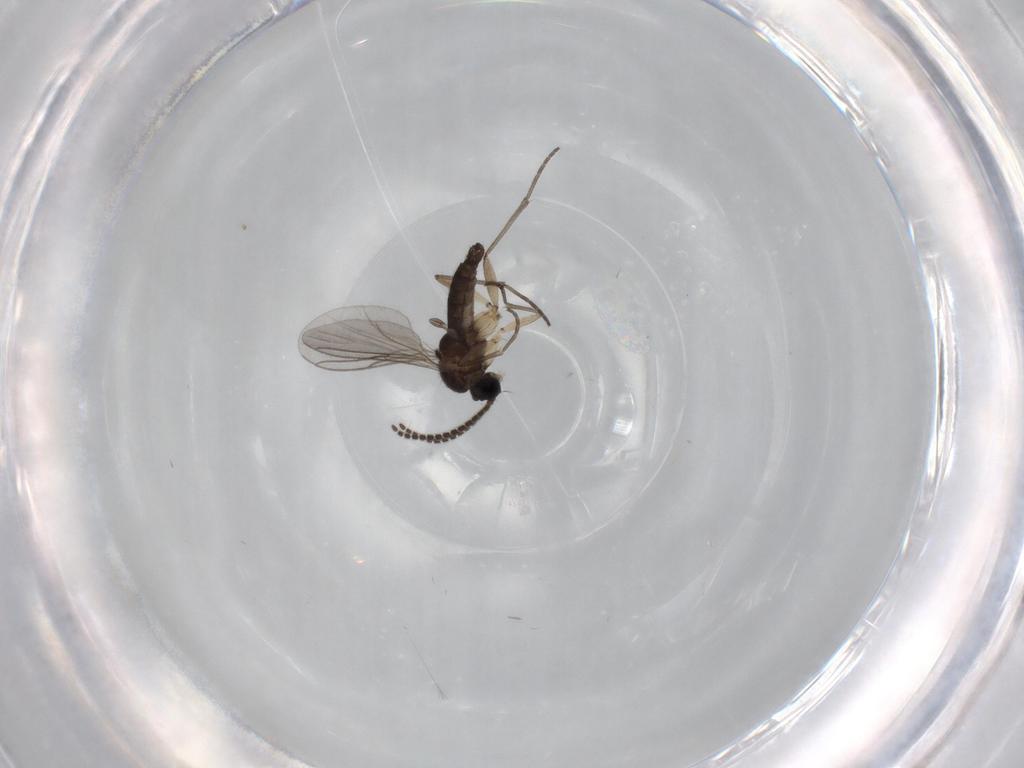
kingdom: Animalia
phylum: Arthropoda
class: Insecta
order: Diptera
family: Sciaridae
